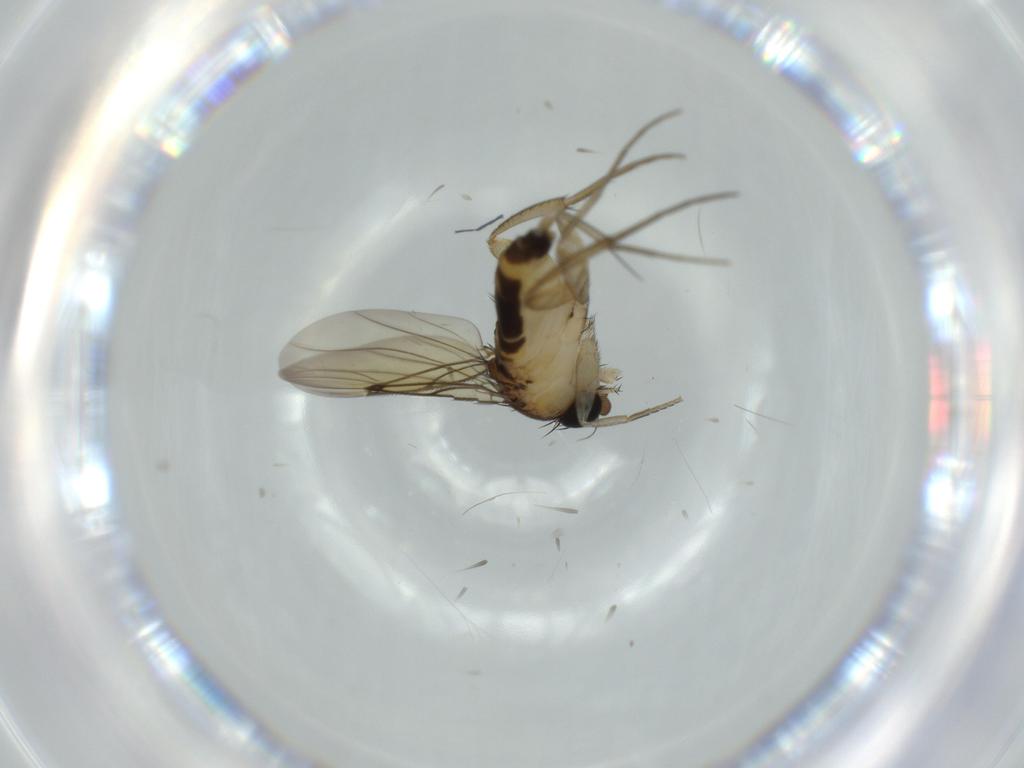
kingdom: Animalia
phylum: Arthropoda
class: Insecta
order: Diptera
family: Phoridae
